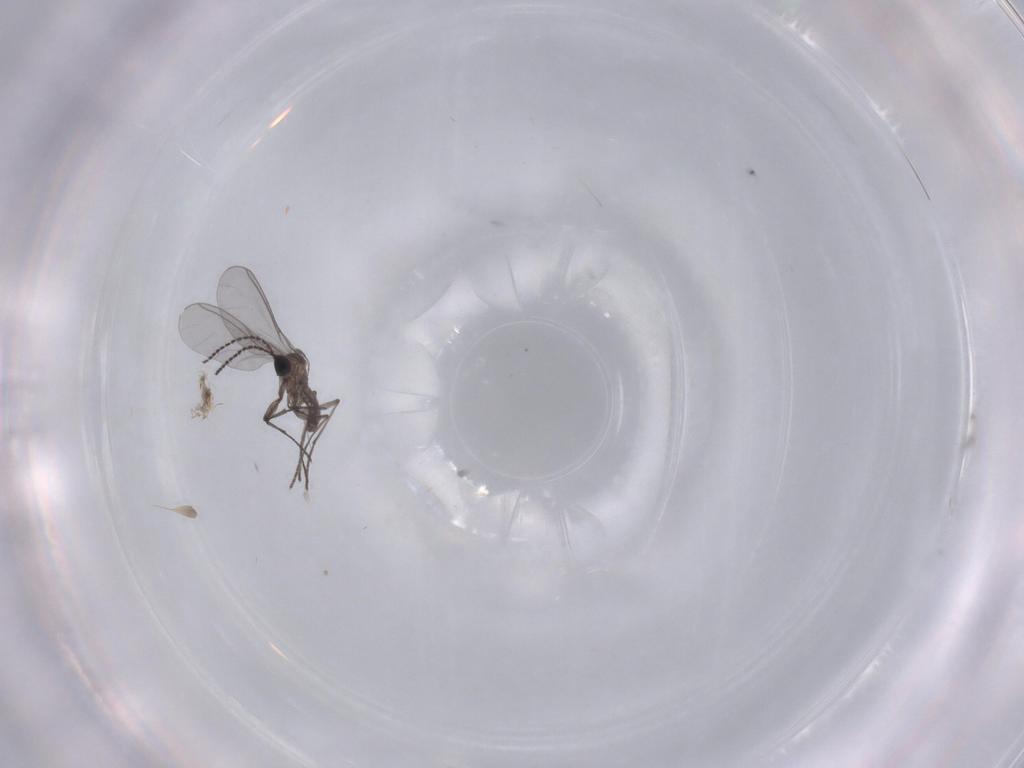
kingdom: Animalia
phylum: Arthropoda
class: Insecta
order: Diptera
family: Sciaridae
